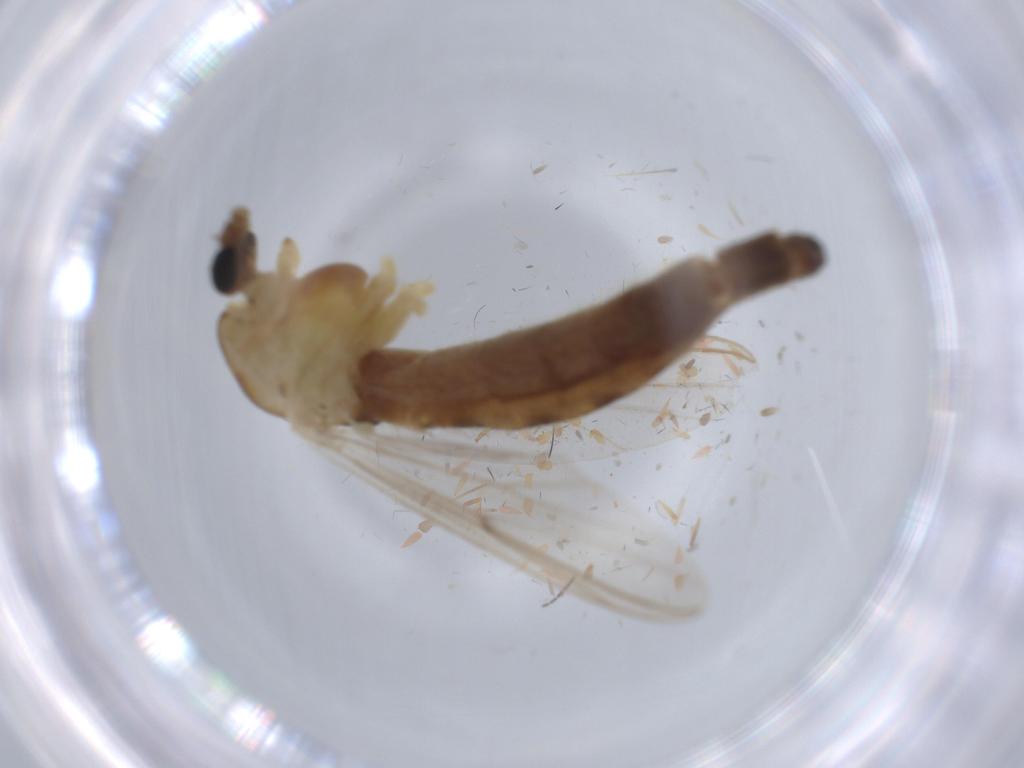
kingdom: Animalia
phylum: Arthropoda
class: Insecta
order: Diptera
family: Chironomidae
